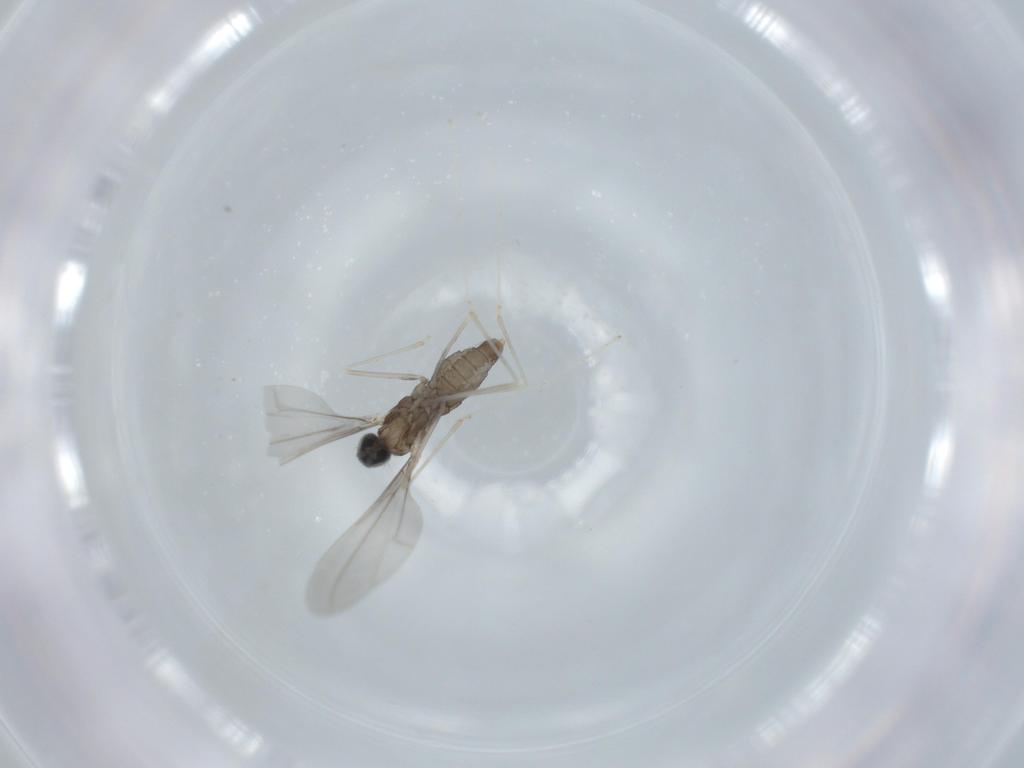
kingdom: Animalia
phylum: Arthropoda
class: Insecta
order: Diptera
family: Cecidomyiidae
